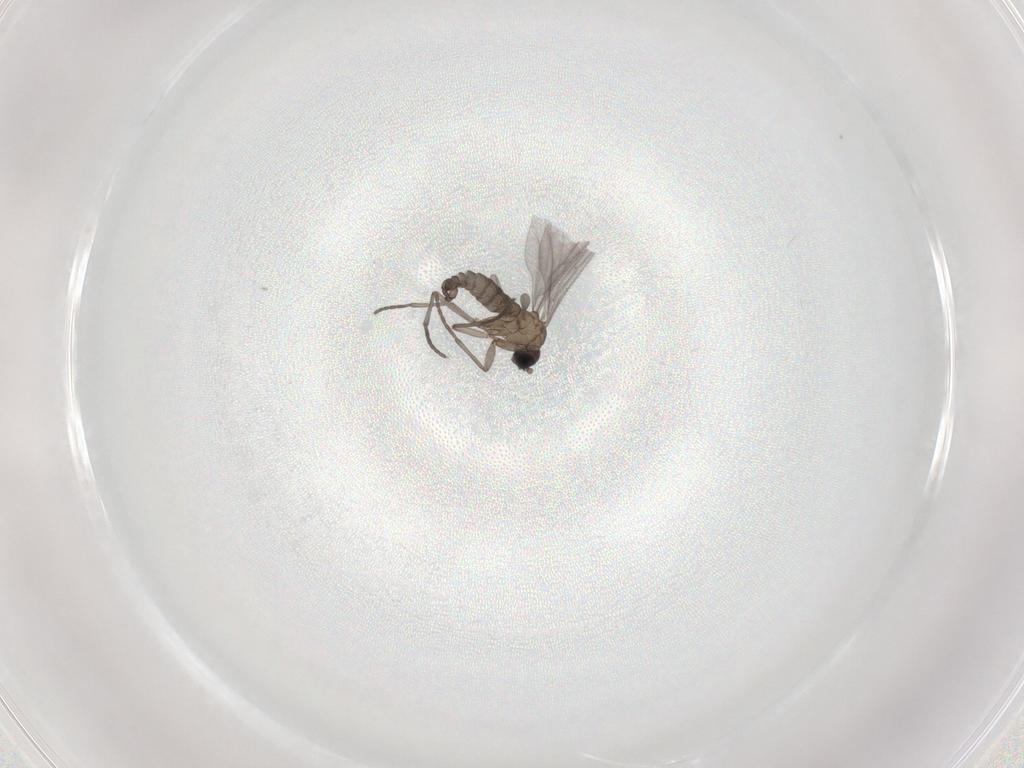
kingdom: Animalia
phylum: Arthropoda
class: Insecta
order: Diptera
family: Sciaridae
